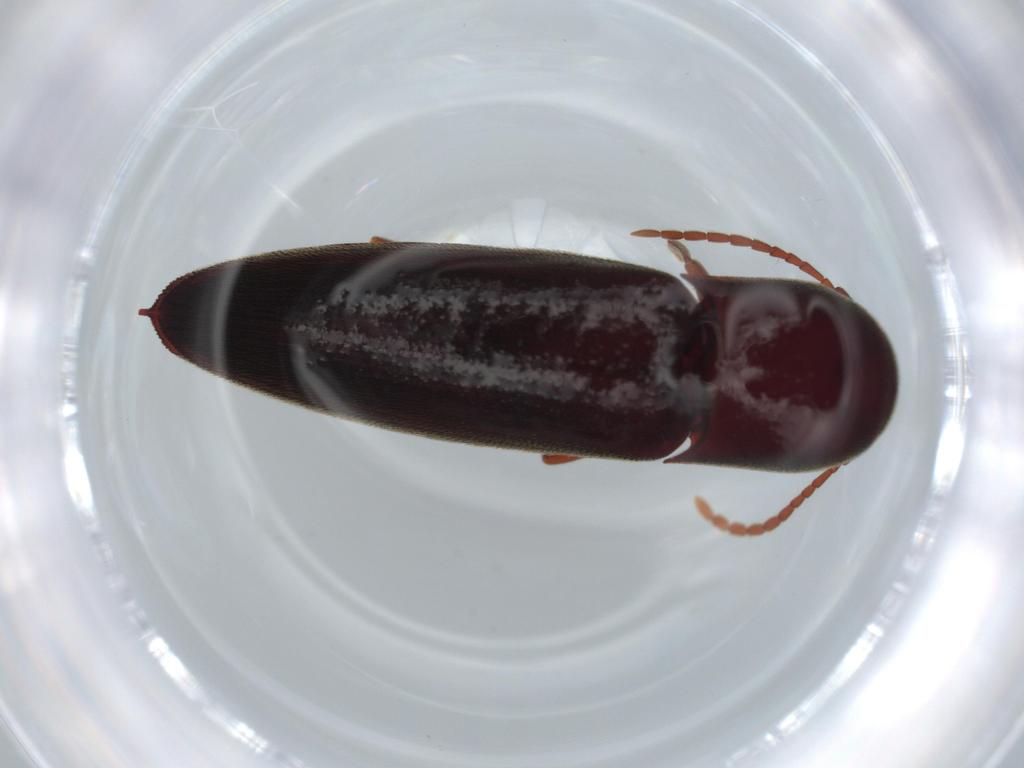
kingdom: Animalia
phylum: Arthropoda
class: Insecta
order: Coleoptera
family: Eucnemidae
